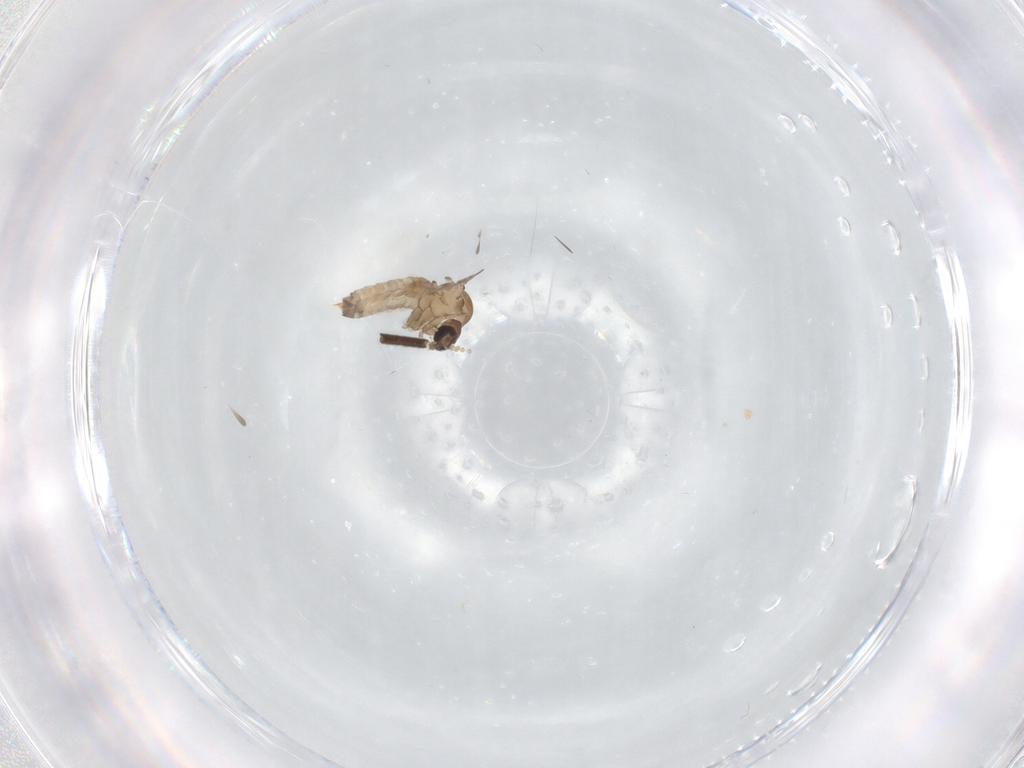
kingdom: Animalia
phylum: Arthropoda
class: Insecta
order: Diptera
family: Psychodidae
